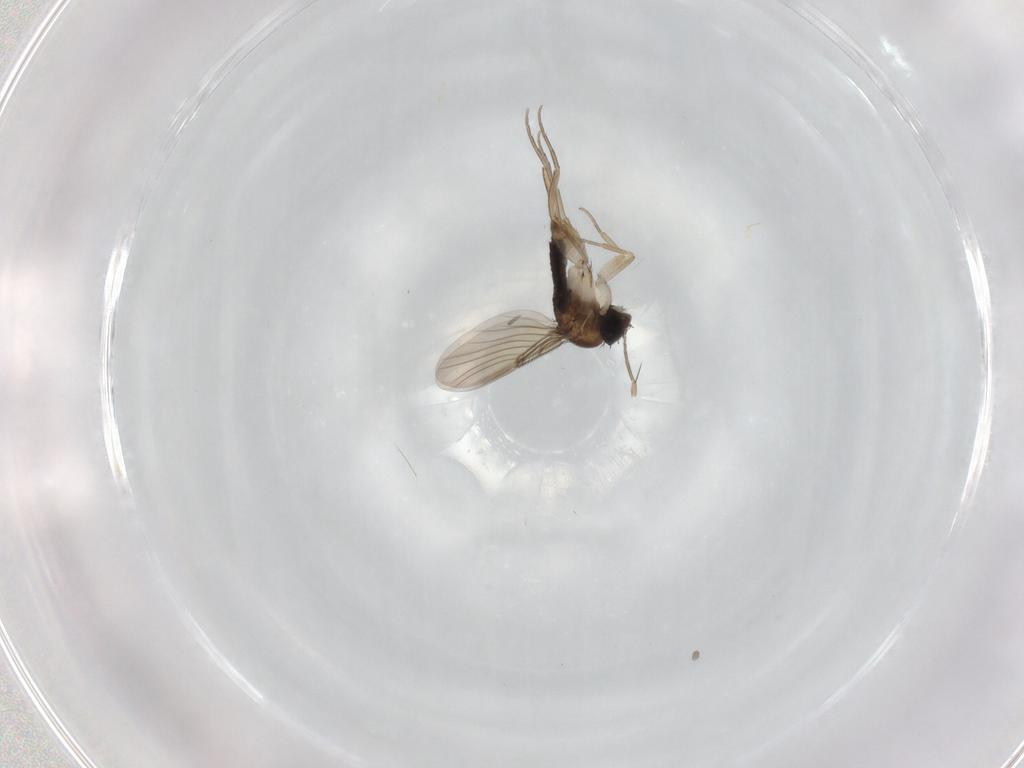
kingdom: Animalia
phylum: Arthropoda
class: Insecta
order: Diptera
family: Phoridae
